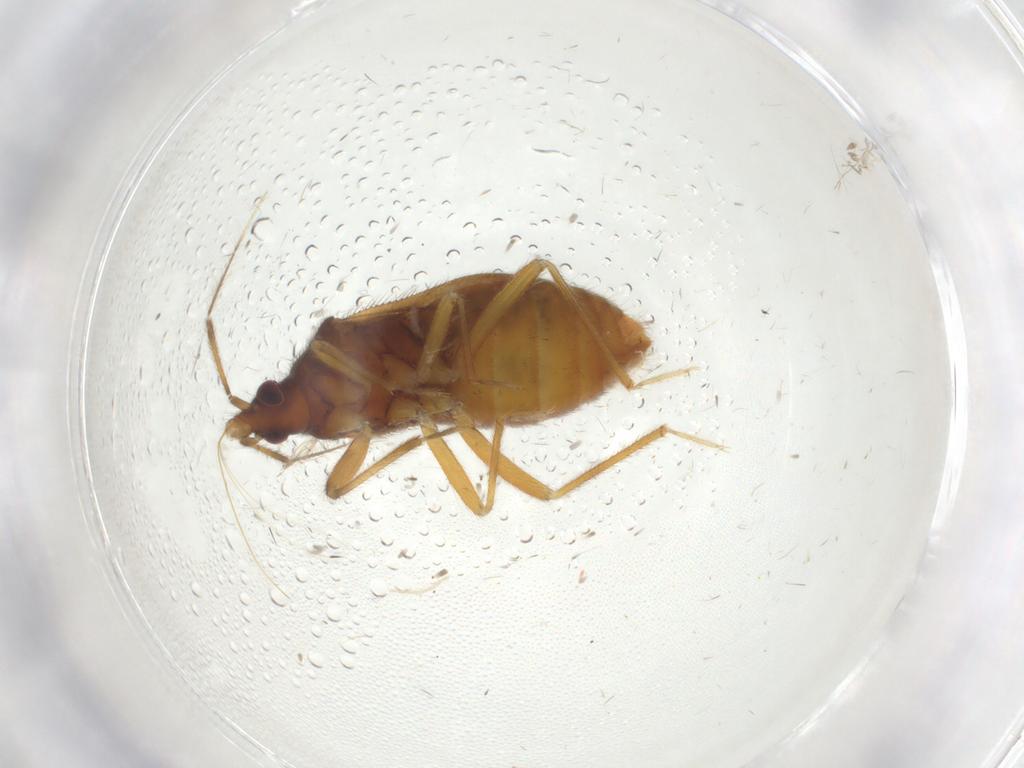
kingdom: Animalia
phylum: Arthropoda
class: Insecta
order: Hemiptera
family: Anthocoridae
